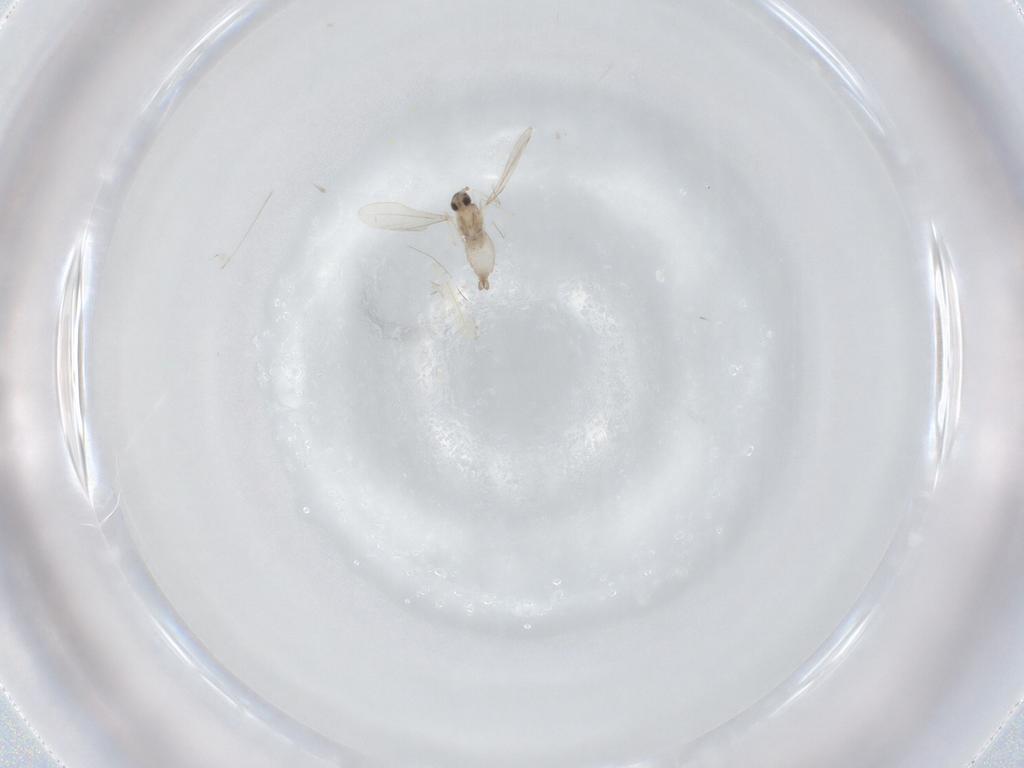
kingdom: Animalia
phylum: Arthropoda
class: Insecta
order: Diptera
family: Cecidomyiidae
